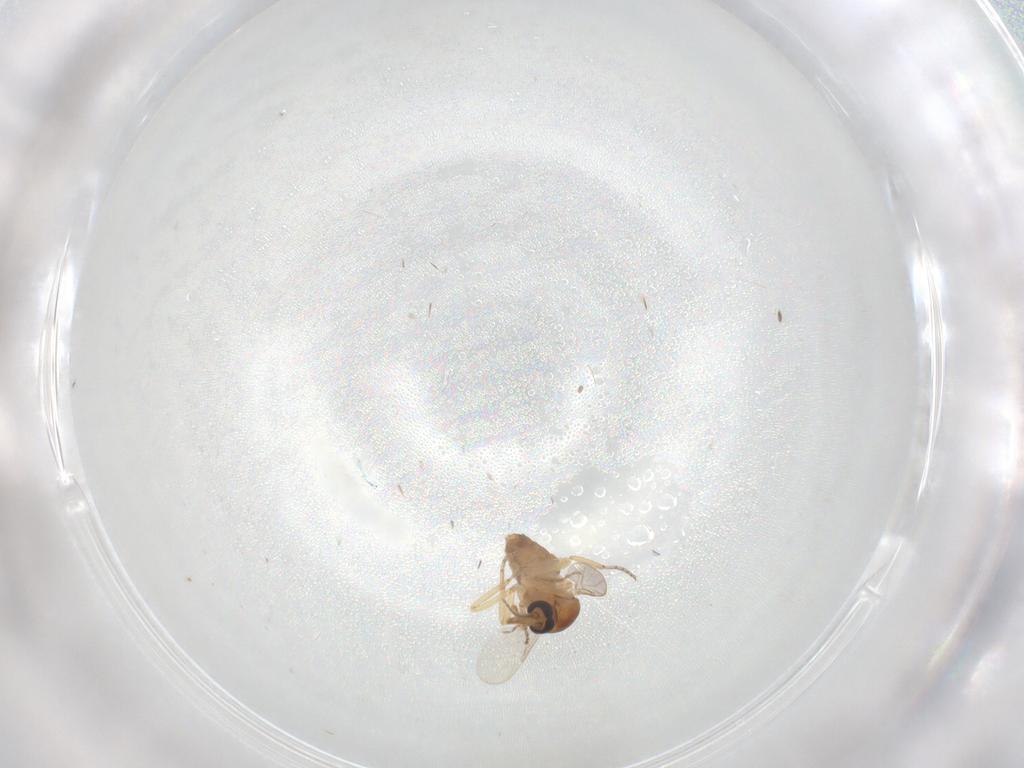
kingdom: Animalia
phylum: Arthropoda
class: Insecta
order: Diptera
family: Ceratopogonidae
